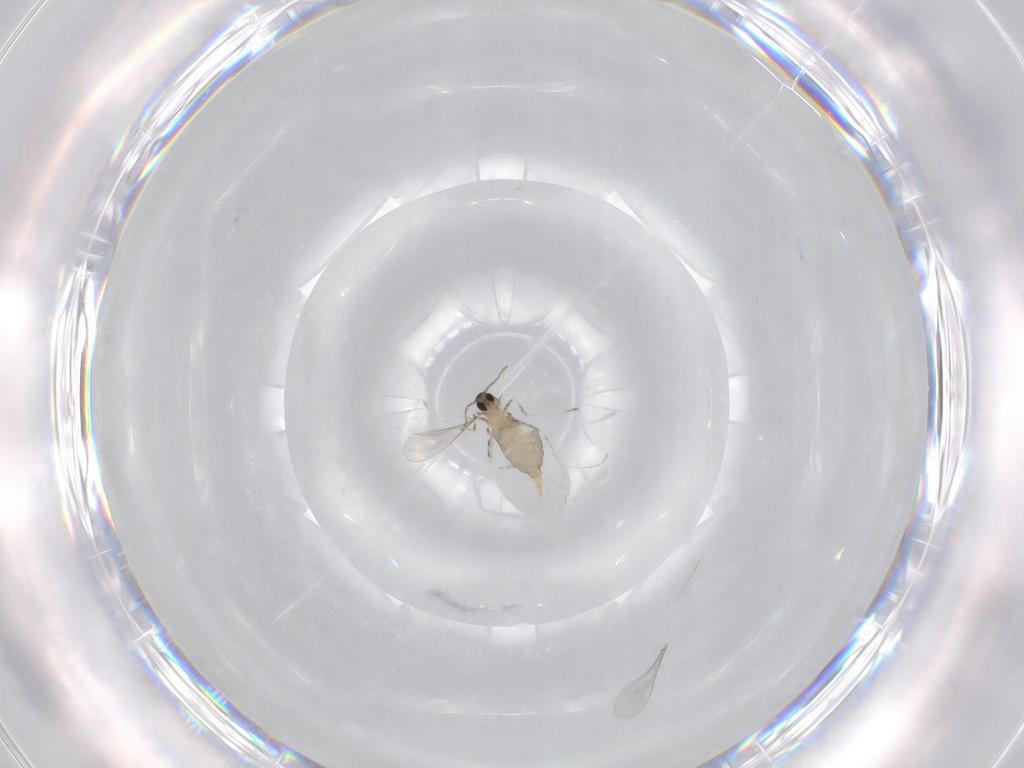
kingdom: Animalia
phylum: Arthropoda
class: Insecta
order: Diptera
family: Cecidomyiidae
